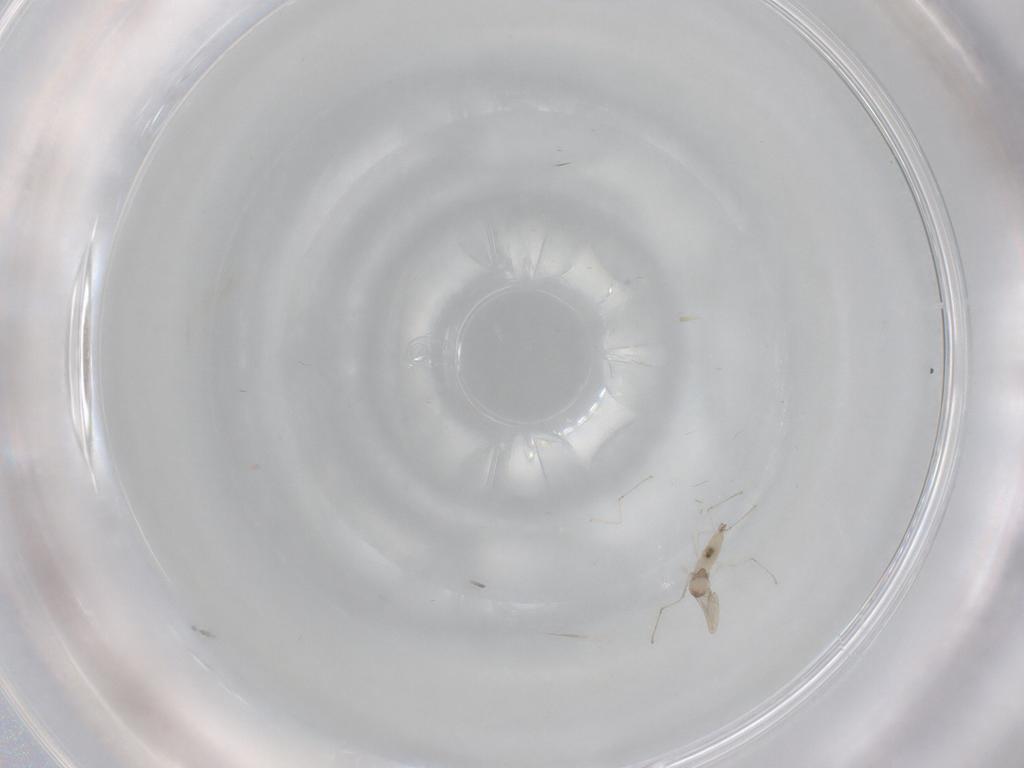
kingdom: Animalia
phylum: Arthropoda
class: Insecta
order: Diptera
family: Cecidomyiidae
